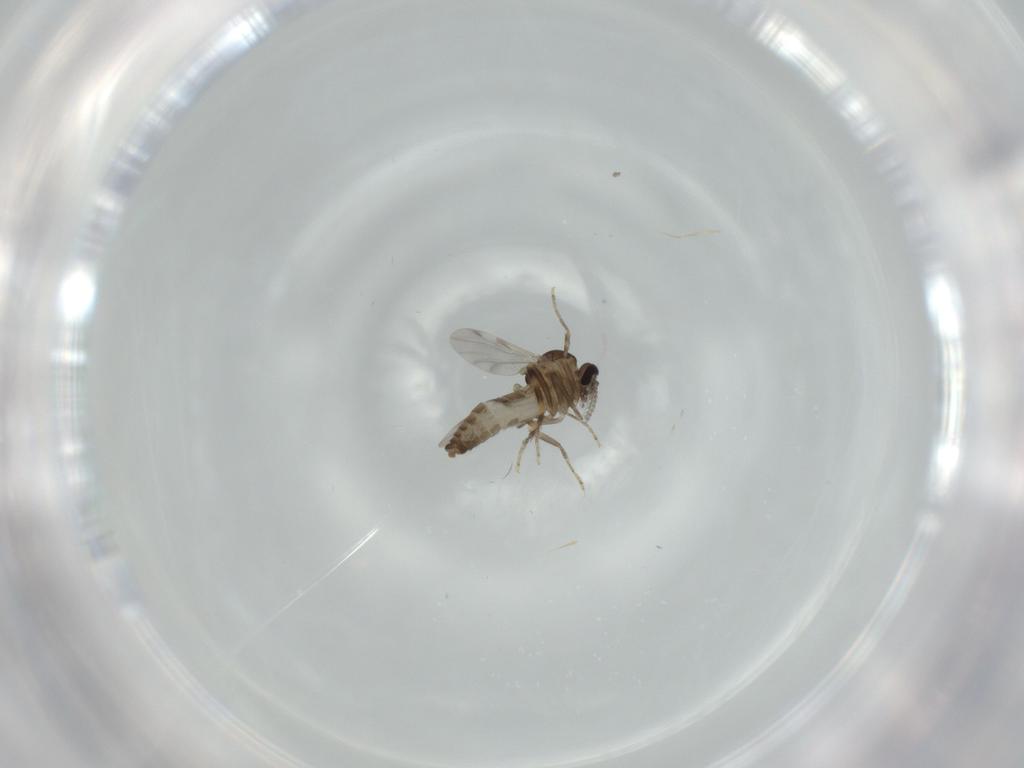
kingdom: Animalia
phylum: Arthropoda
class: Insecta
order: Diptera
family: Ceratopogonidae
